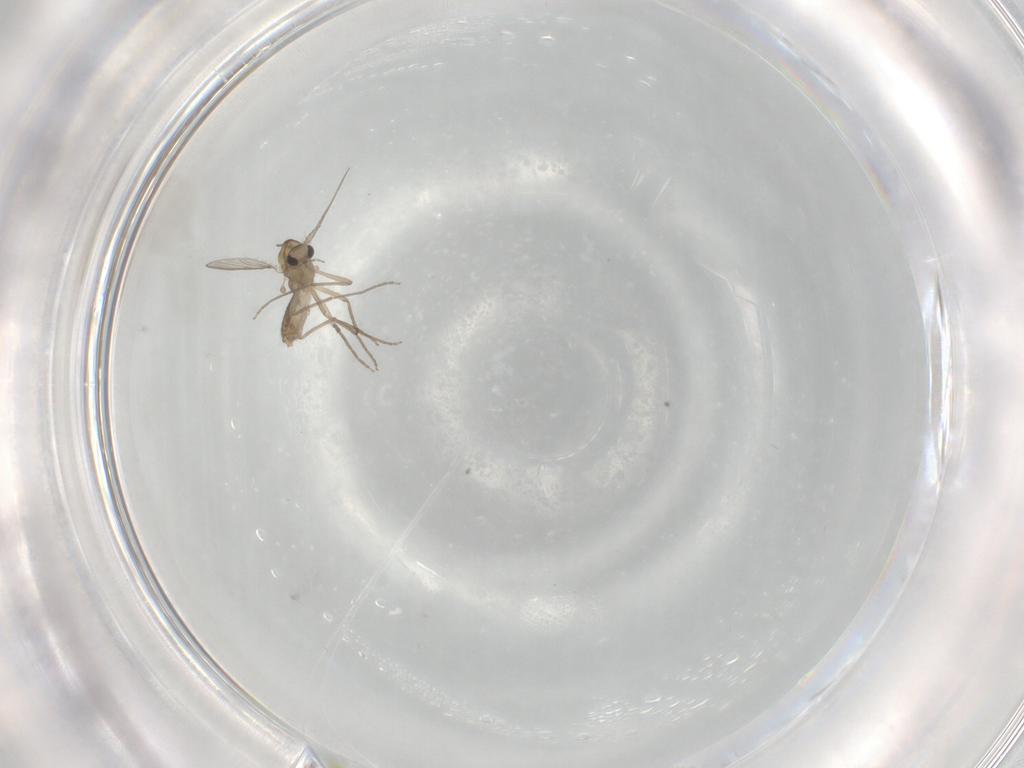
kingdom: Animalia
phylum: Arthropoda
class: Insecta
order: Diptera
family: Chironomidae
